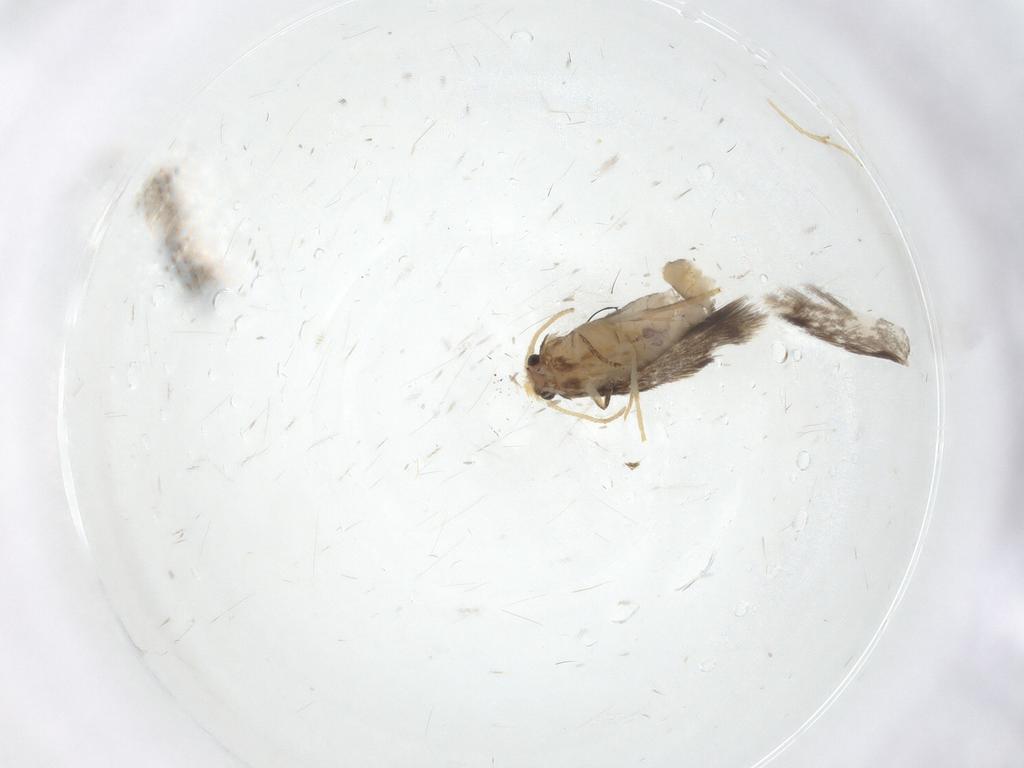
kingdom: Animalia
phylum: Arthropoda
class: Insecta
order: Lepidoptera
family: Nepticulidae
